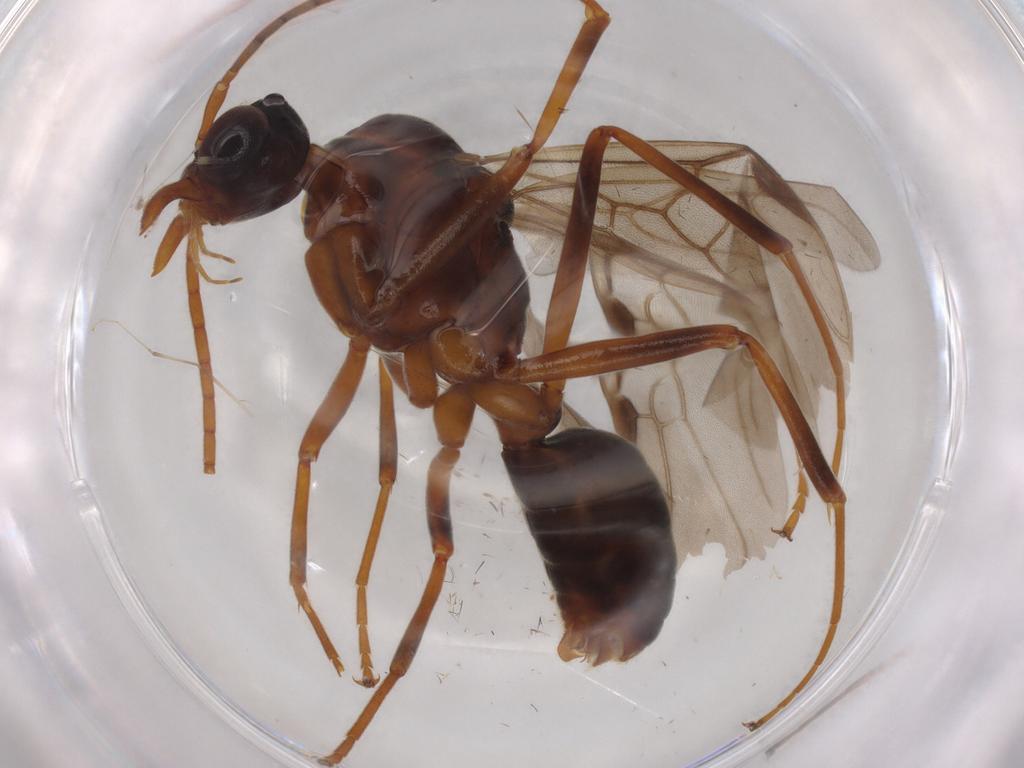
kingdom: Animalia
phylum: Arthropoda
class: Insecta
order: Hymenoptera
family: Formicidae
